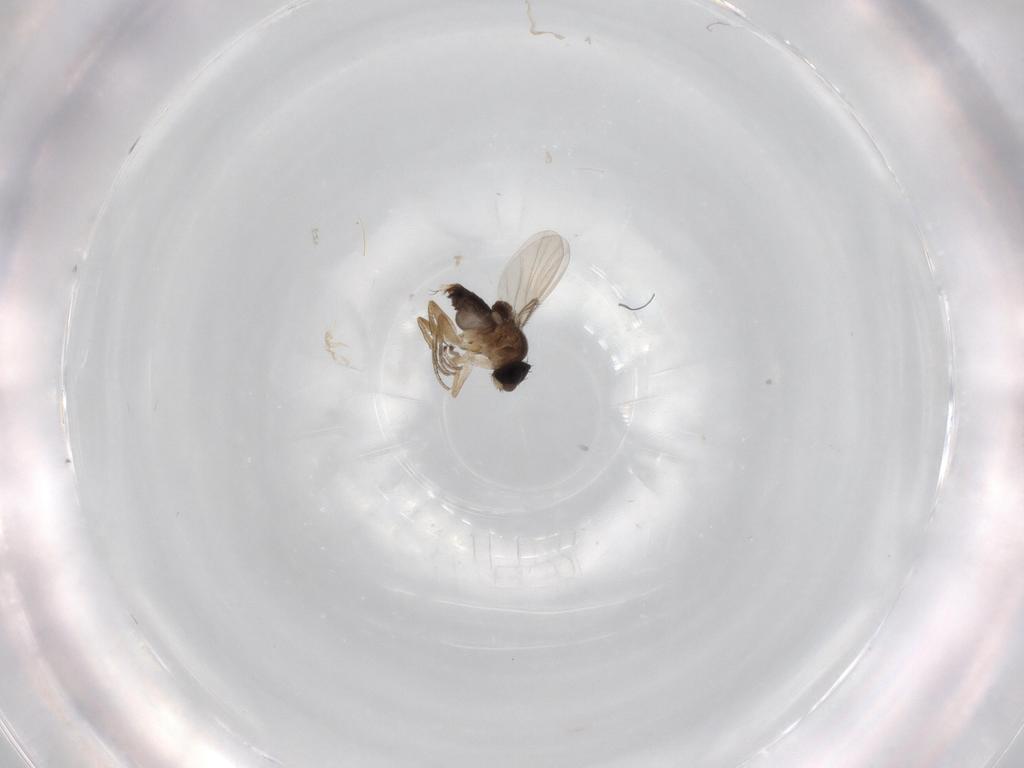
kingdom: Animalia
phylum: Arthropoda
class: Insecta
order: Diptera
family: Phoridae
